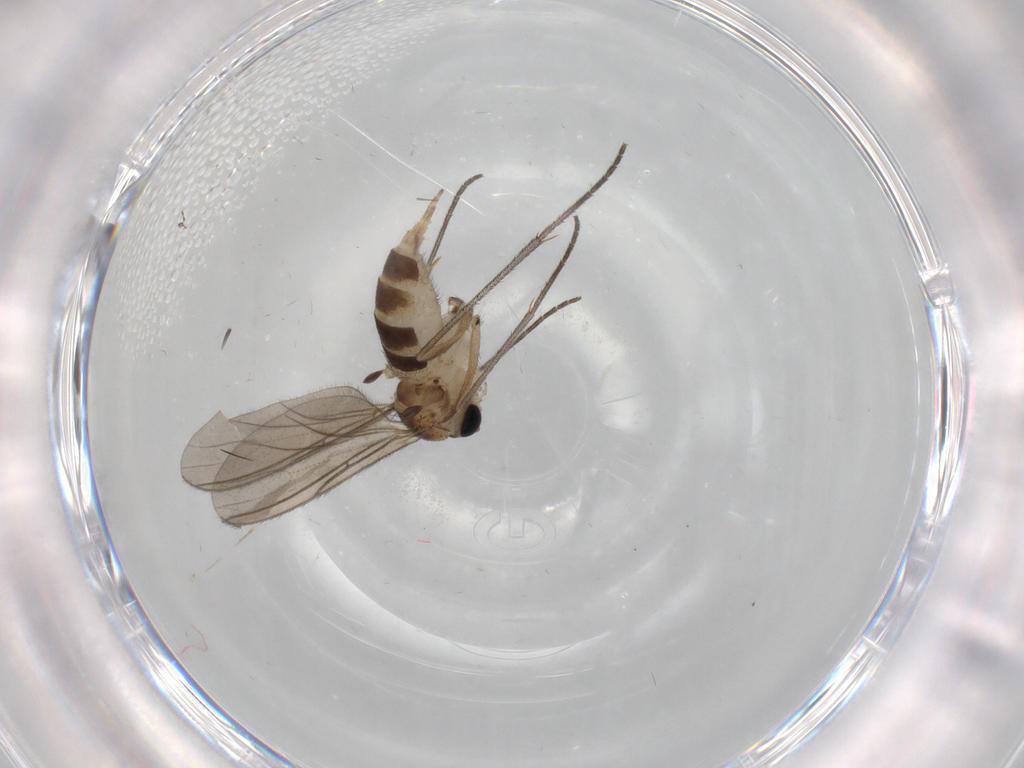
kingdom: Animalia
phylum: Arthropoda
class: Insecta
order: Diptera
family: Sciaridae
